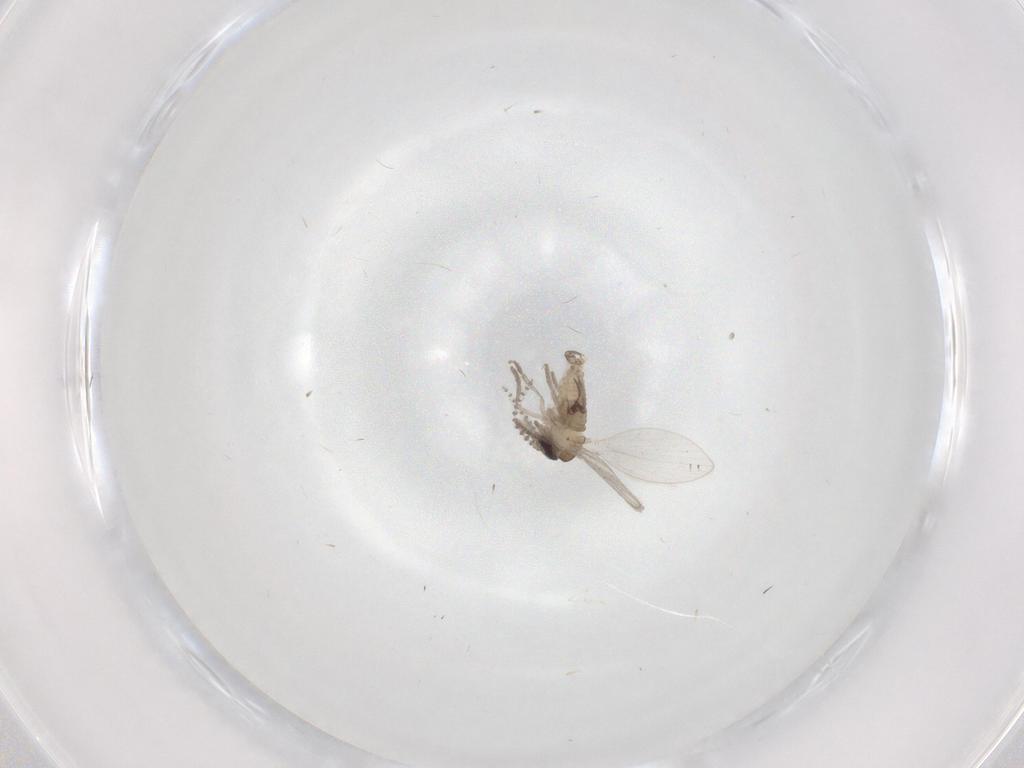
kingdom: Animalia
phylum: Arthropoda
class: Insecta
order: Diptera
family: Psychodidae
